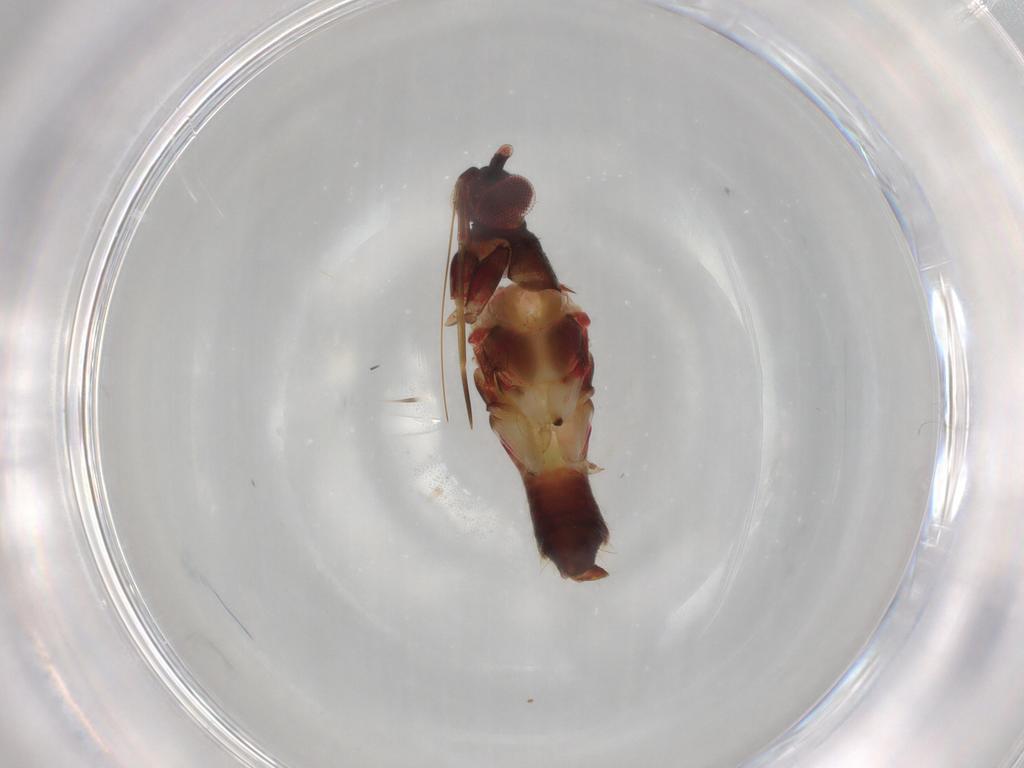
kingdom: Animalia
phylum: Arthropoda
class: Insecta
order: Hemiptera
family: Miridae
